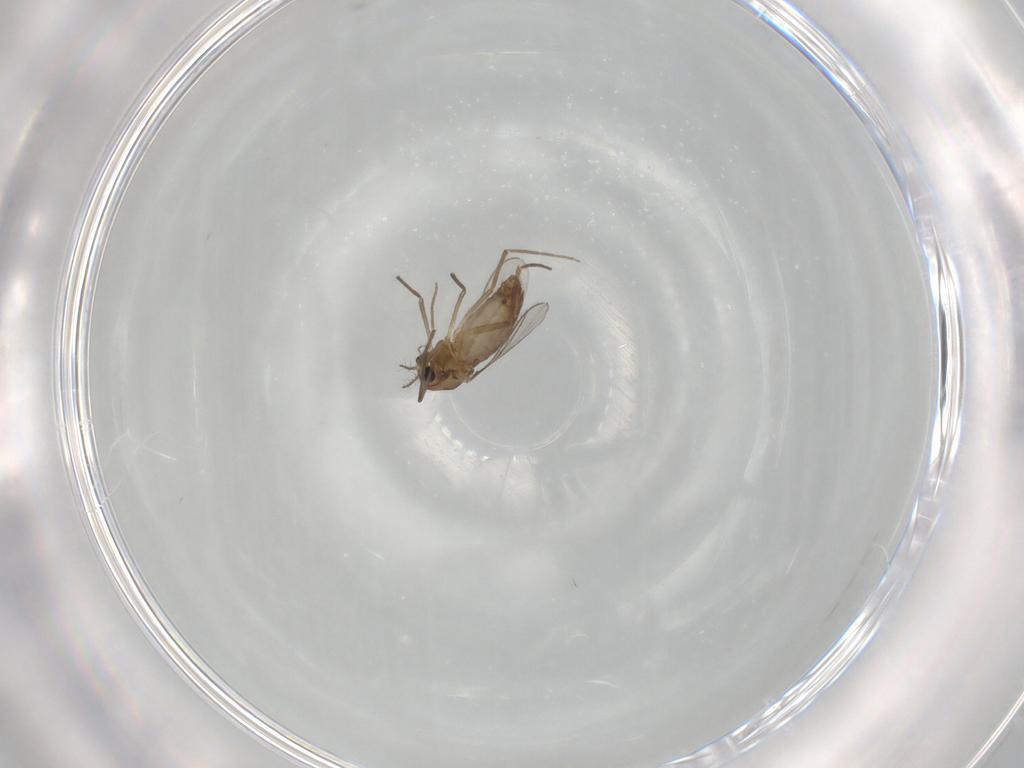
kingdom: Animalia
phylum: Arthropoda
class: Insecta
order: Diptera
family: Chironomidae
